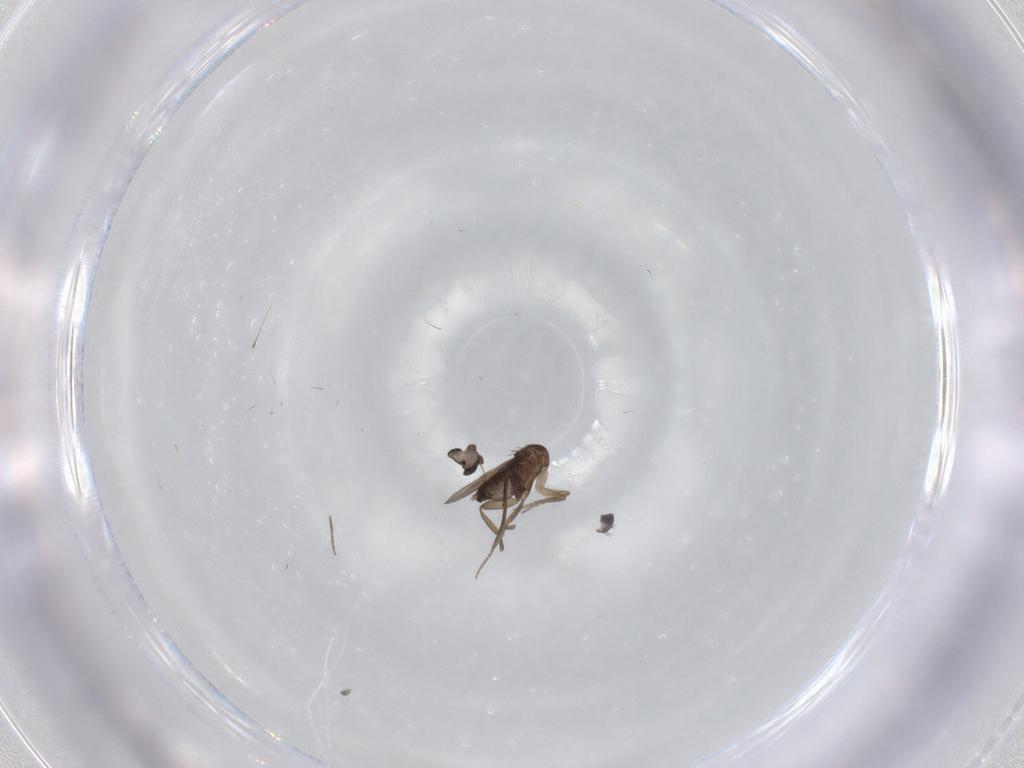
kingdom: Animalia
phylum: Arthropoda
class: Insecta
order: Diptera
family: Phoridae
